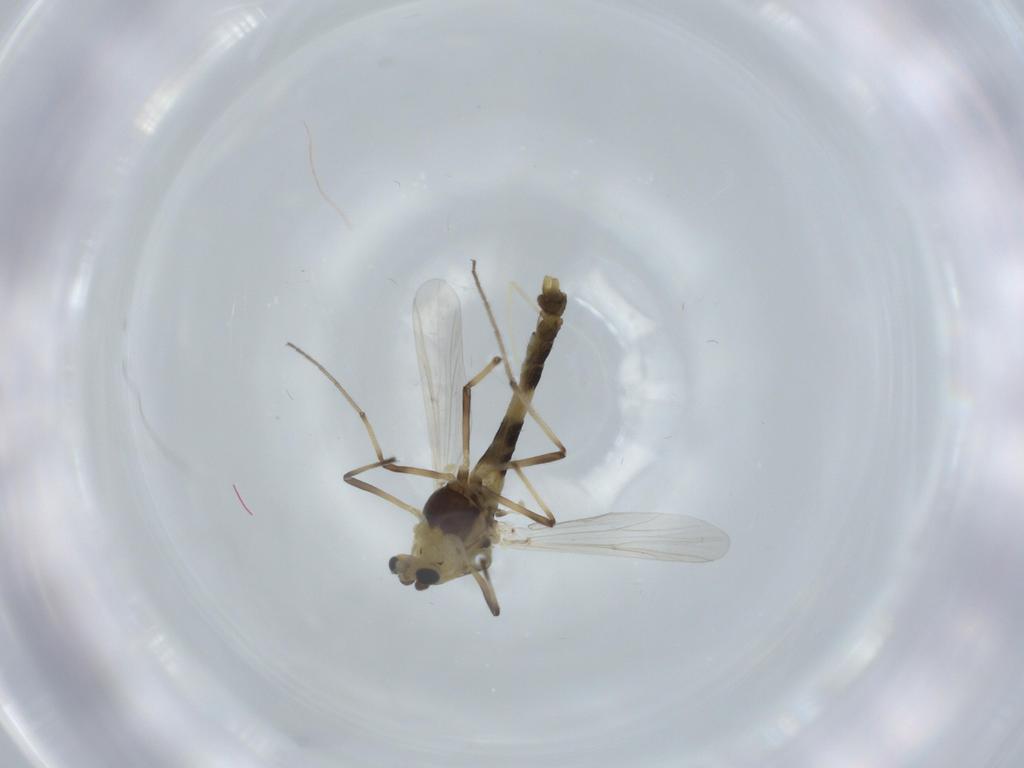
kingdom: Animalia
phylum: Arthropoda
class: Insecta
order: Diptera
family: Chironomidae
